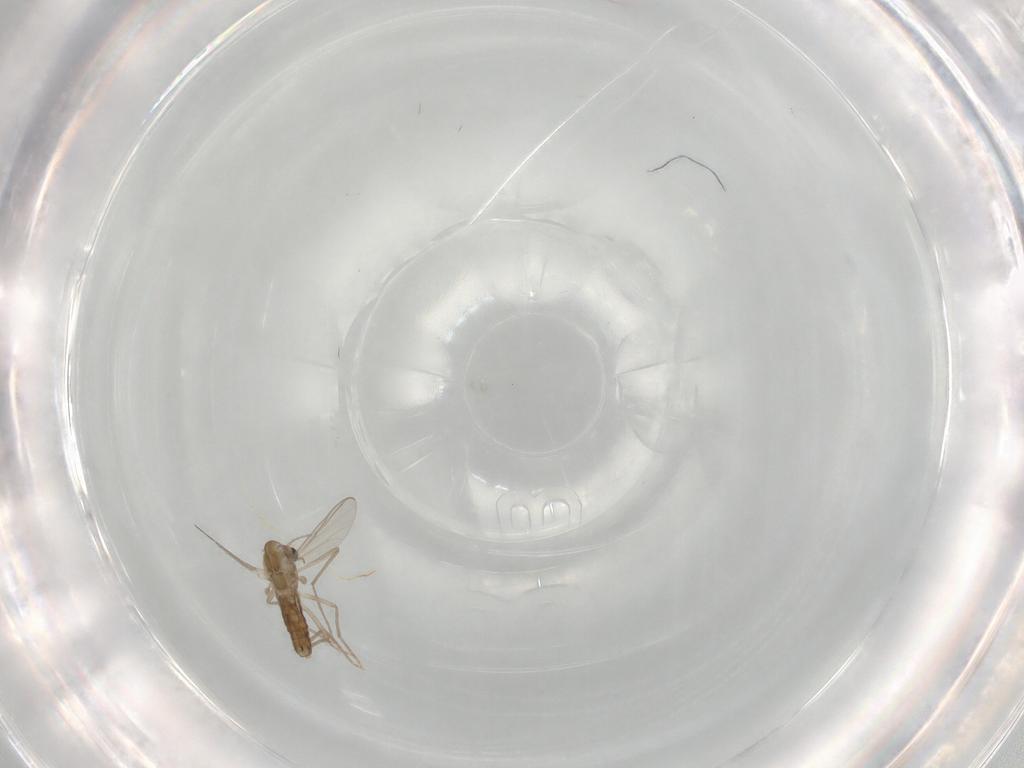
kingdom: Animalia
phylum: Arthropoda
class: Insecta
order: Diptera
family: Chironomidae
